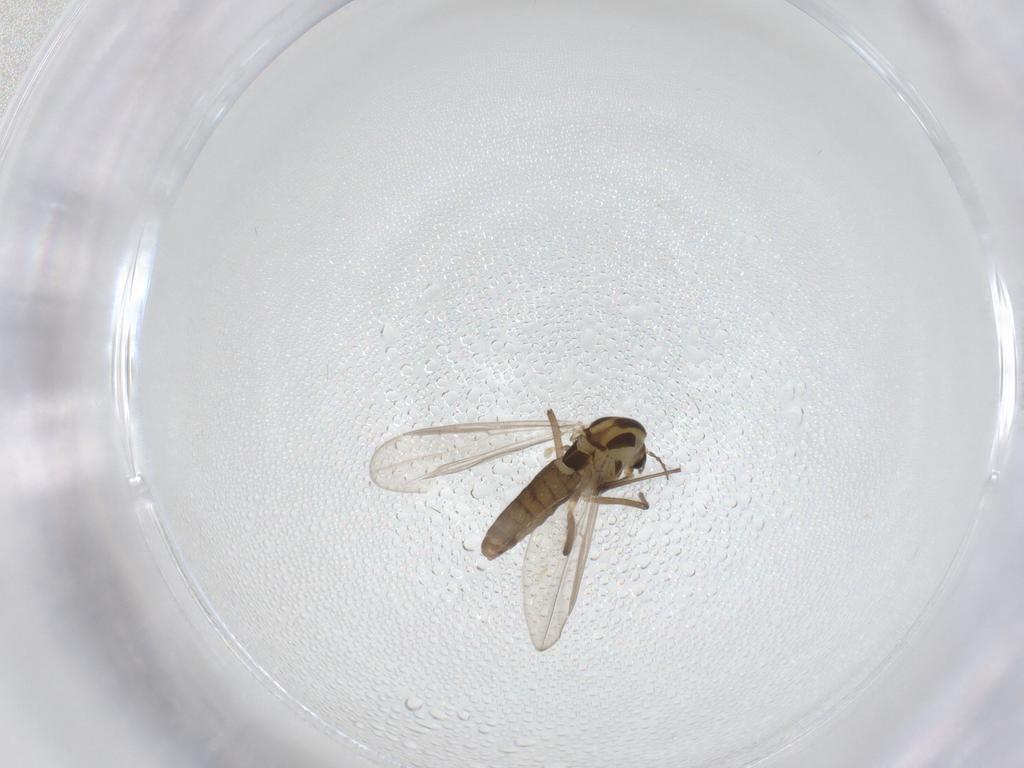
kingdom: Animalia
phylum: Arthropoda
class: Insecta
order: Diptera
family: Chironomidae
